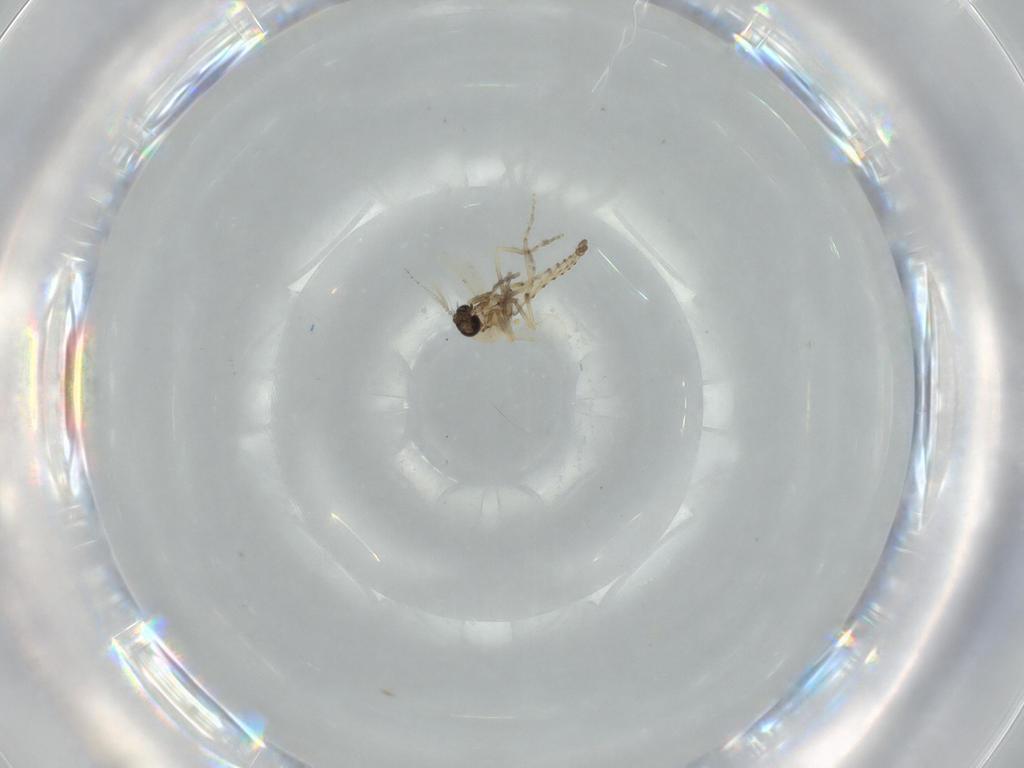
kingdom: Animalia
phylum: Arthropoda
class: Insecta
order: Diptera
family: Ceratopogonidae
